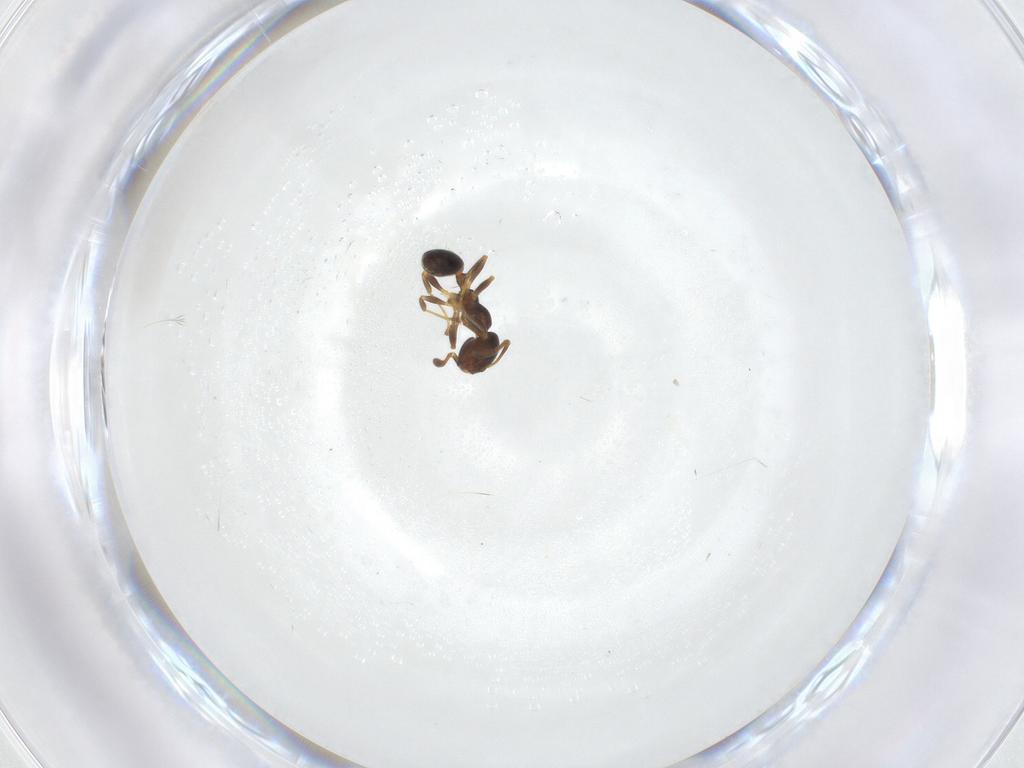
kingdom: Animalia
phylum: Arthropoda
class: Insecta
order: Hymenoptera
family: Formicidae
